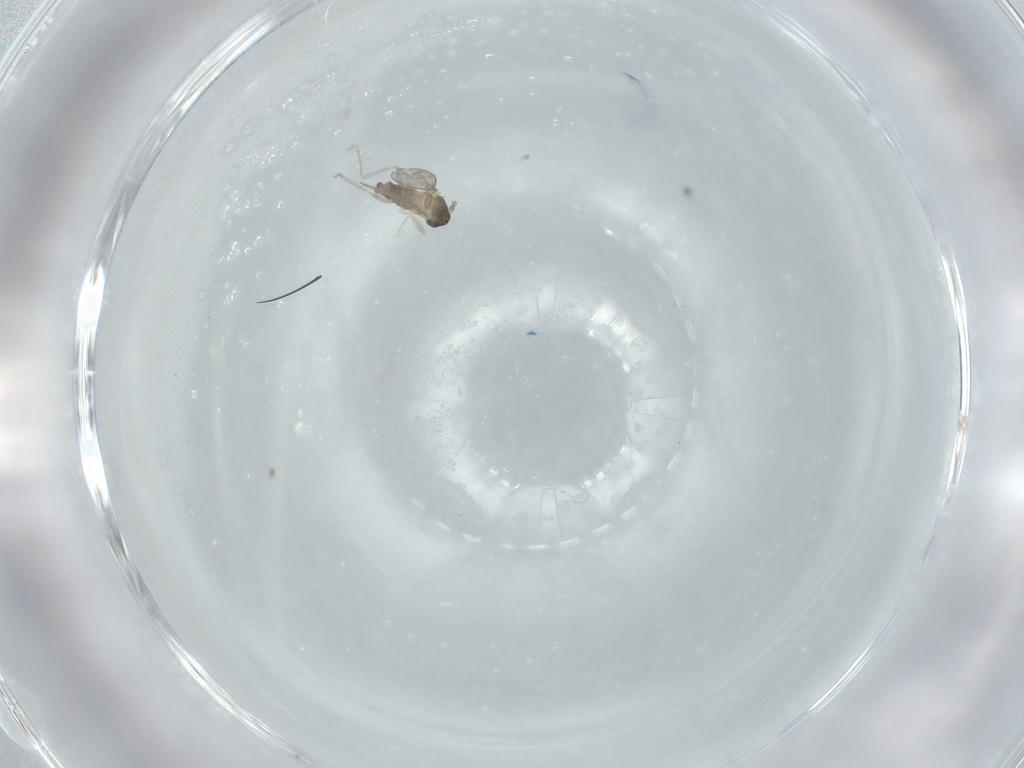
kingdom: Animalia
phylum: Arthropoda
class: Insecta
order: Diptera
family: Cecidomyiidae
